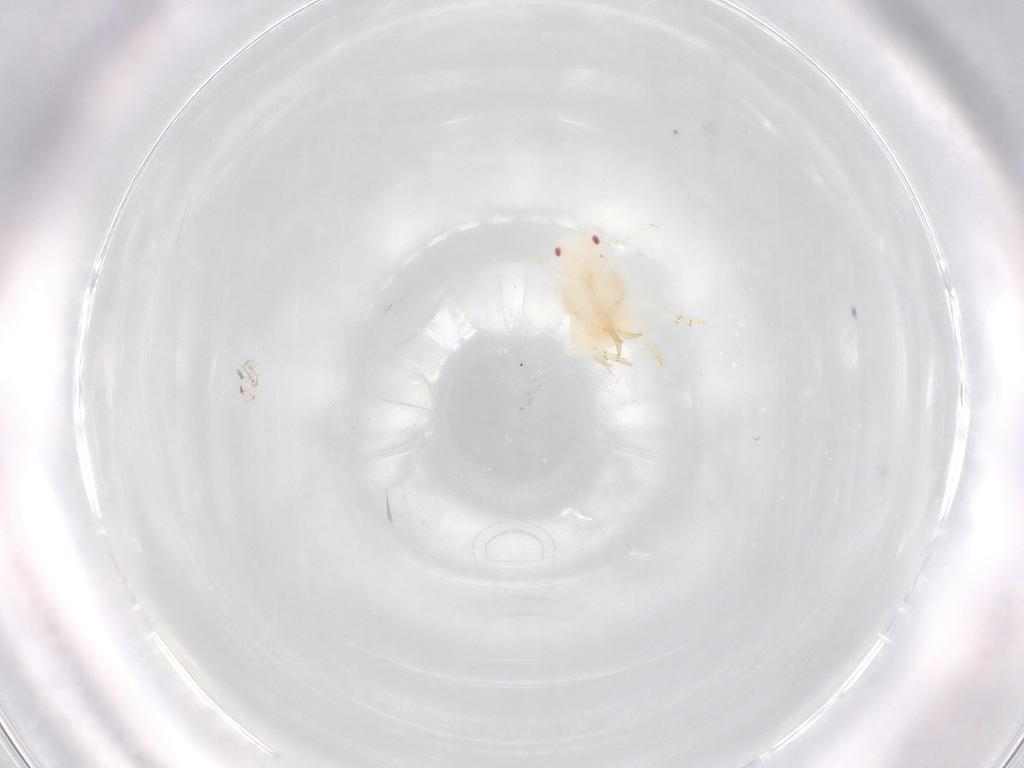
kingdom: Animalia
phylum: Arthropoda
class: Insecta
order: Hemiptera
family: Flatidae
